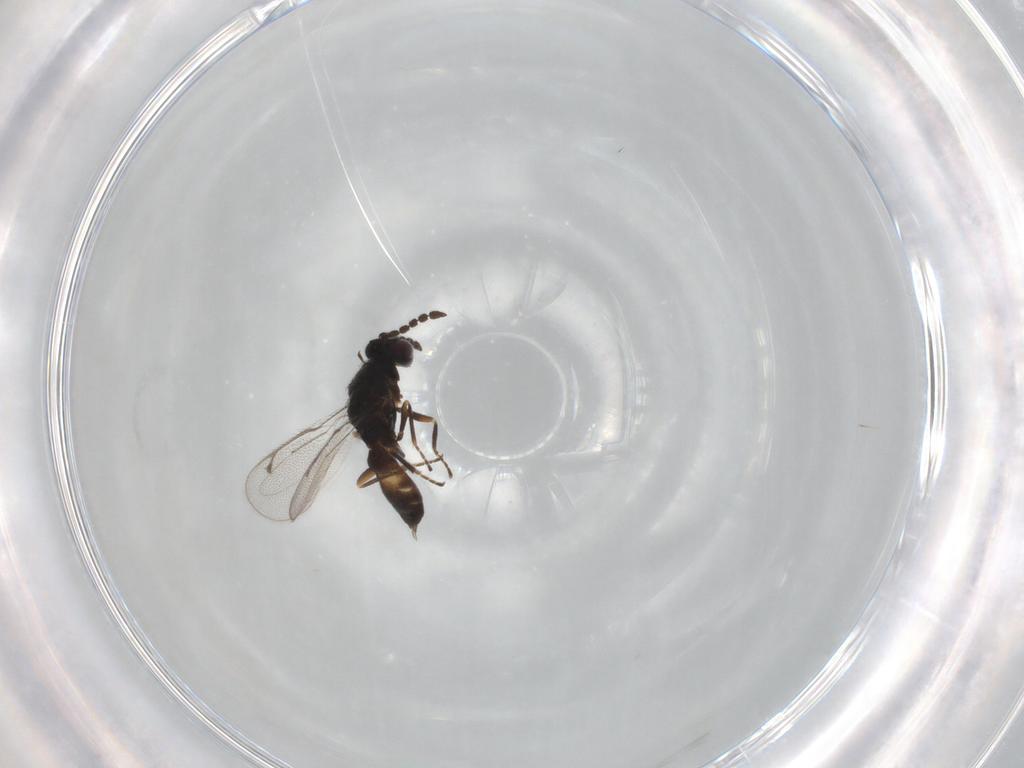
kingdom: Animalia
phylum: Arthropoda
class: Insecta
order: Hymenoptera
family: Eulophidae
